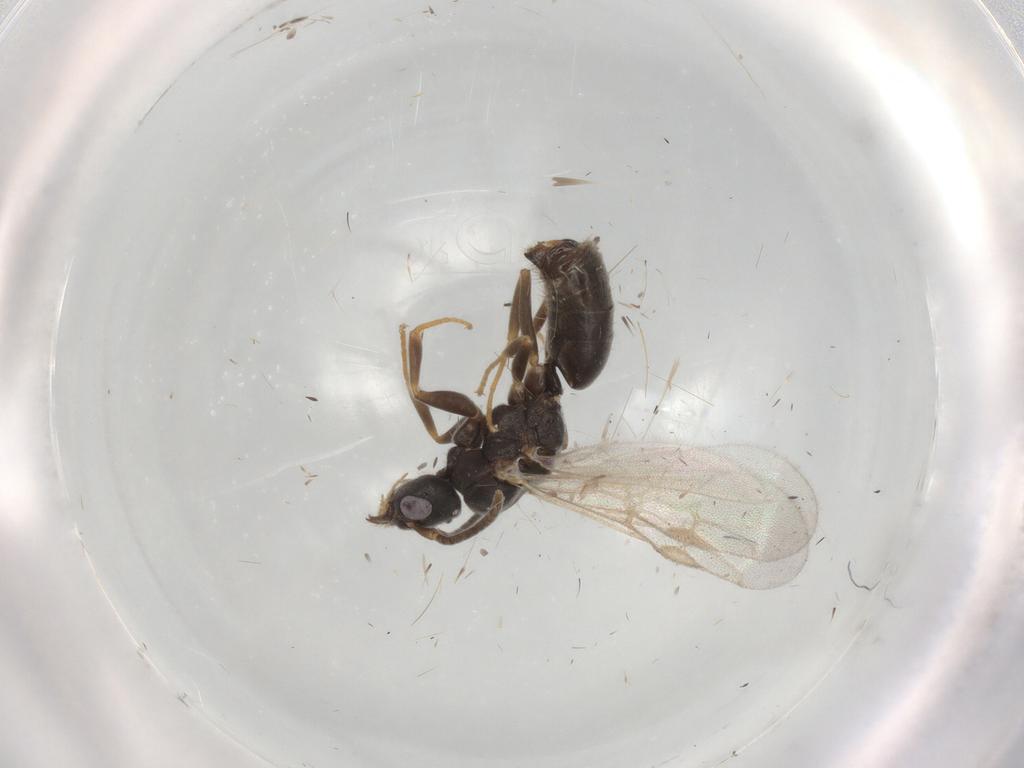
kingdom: Animalia
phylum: Arthropoda
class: Insecta
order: Hymenoptera
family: Formicidae
